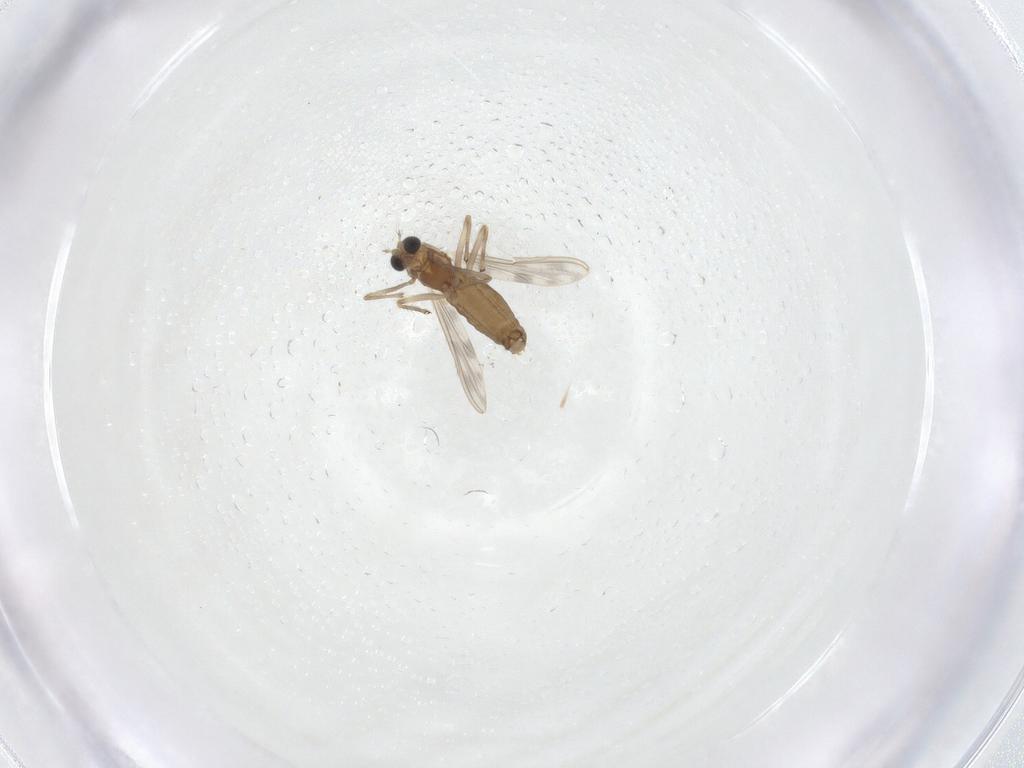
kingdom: Animalia
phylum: Arthropoda
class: Insecta
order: Diptera
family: Chironomidae
